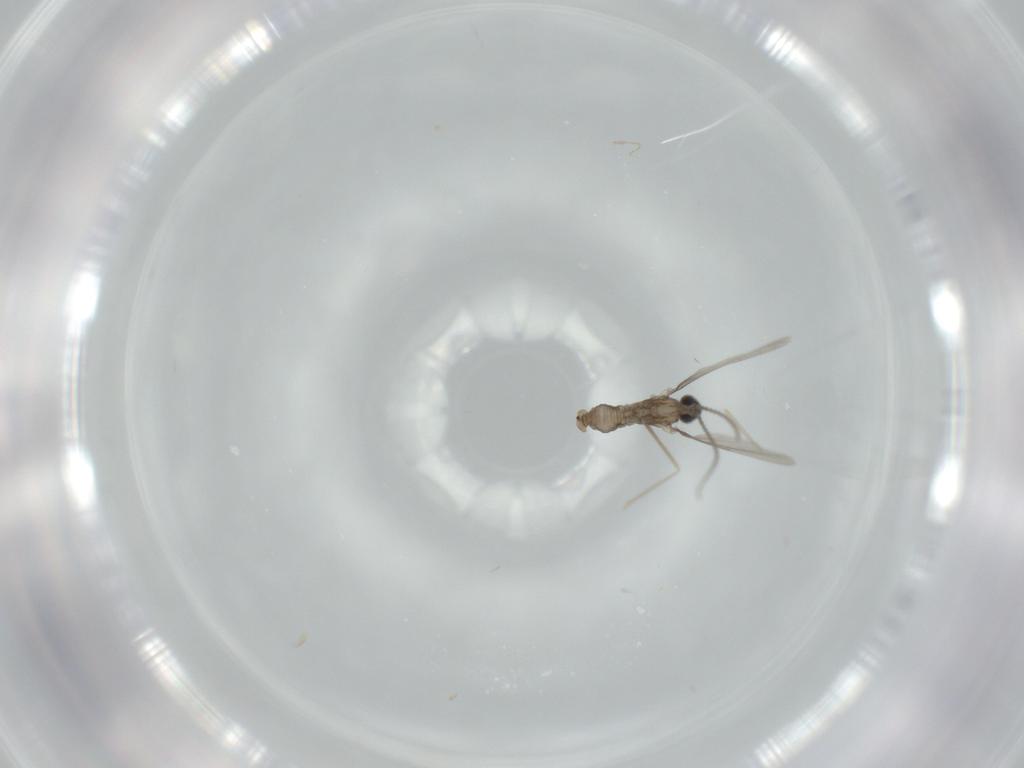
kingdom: Animalia
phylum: Arthropoda
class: Insecta
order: Diptera
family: Cecidomyiidae
